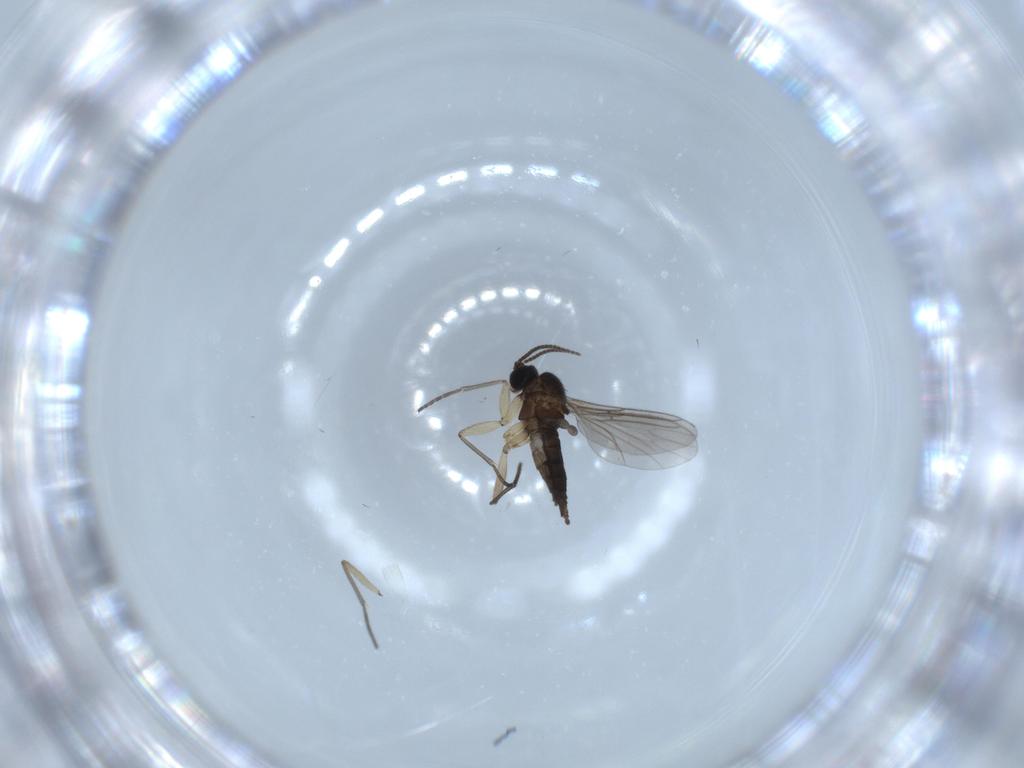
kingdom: Animalia
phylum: Arthropoda
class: Insecta
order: Diptera
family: Sciaridae
